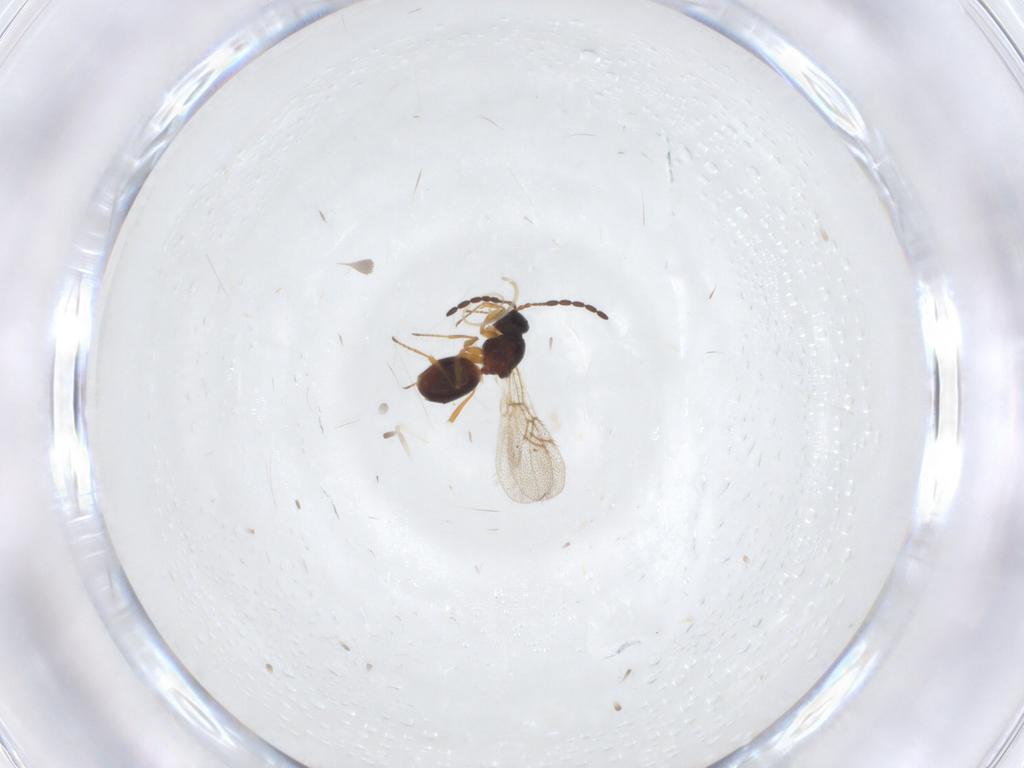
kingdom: Animalia
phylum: Arthropoda
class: Insecta
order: Hymenoptera
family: Figitidae
